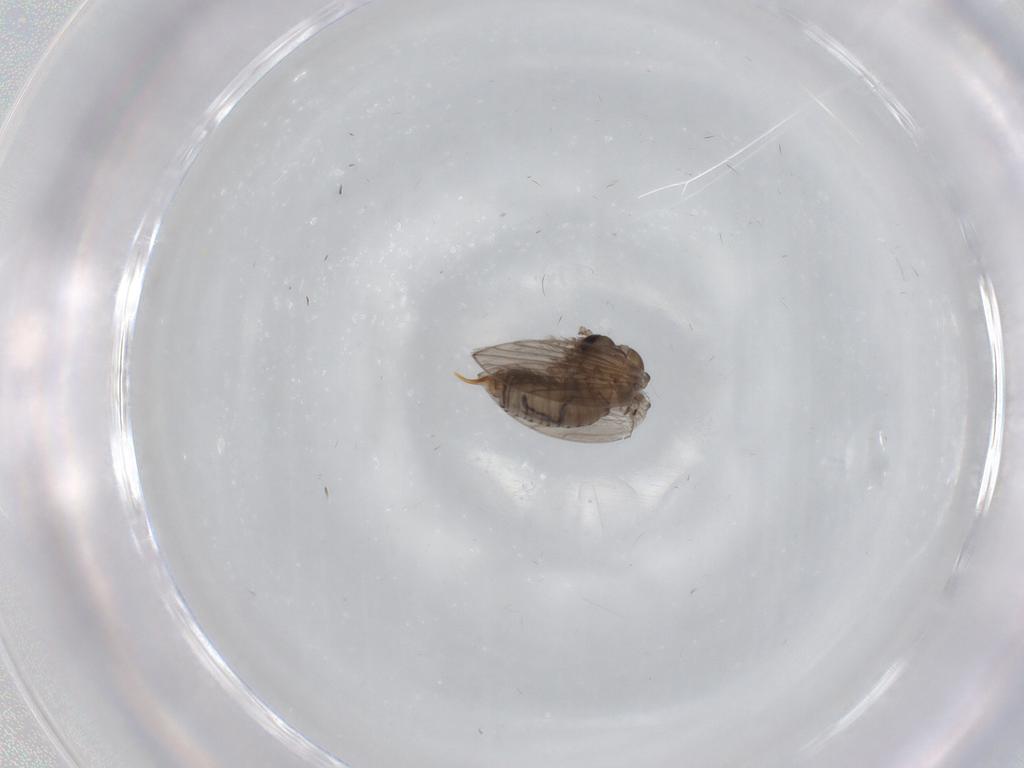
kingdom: Animalia
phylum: Arthropoda
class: Insecta
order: Diptera
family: Psychodidae
